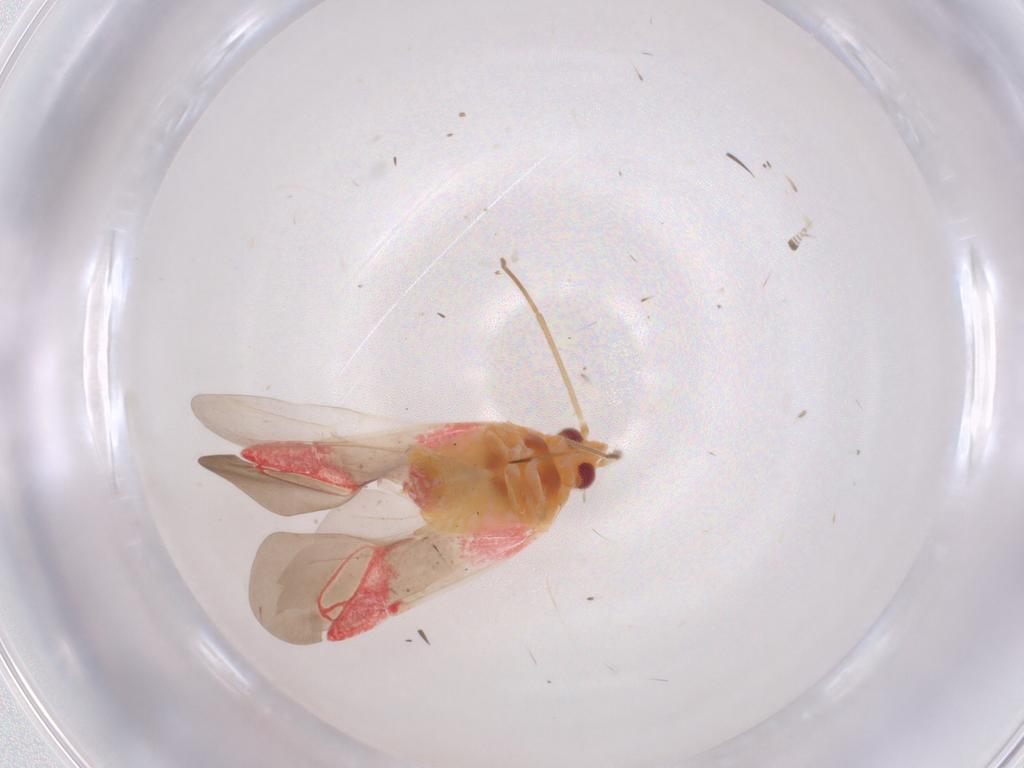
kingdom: Animalia
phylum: Arthropoda
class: Insecta
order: Hemiptera
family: Miridae
